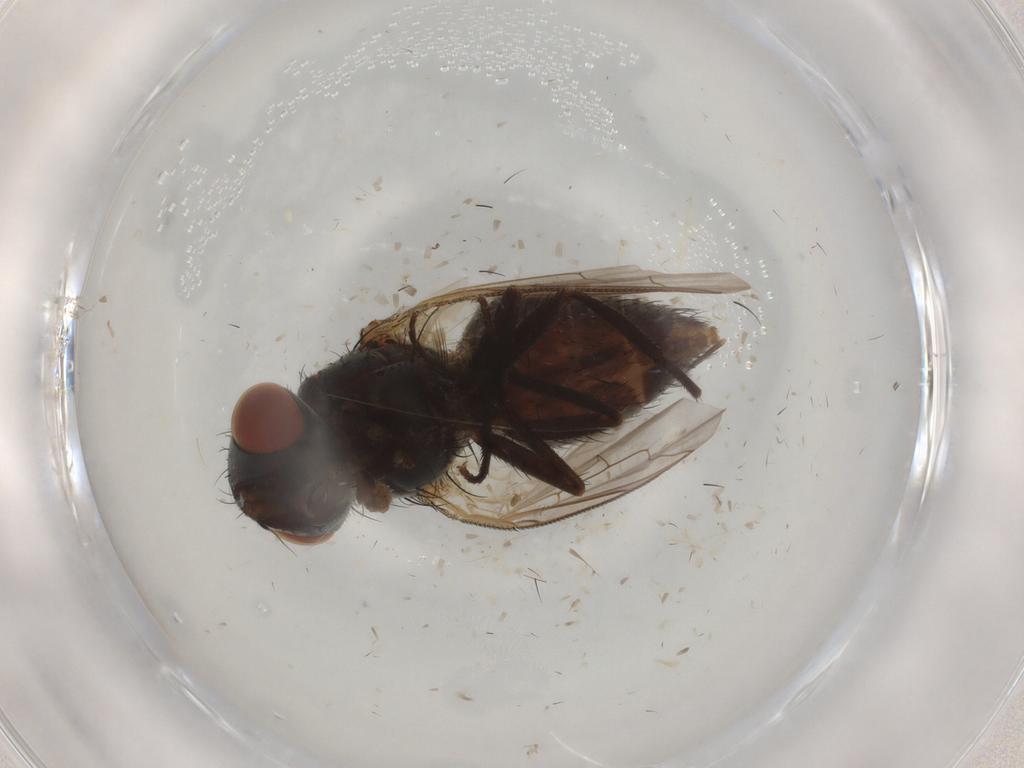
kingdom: Animalia
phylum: Arthropoda
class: Insecta
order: Diptera
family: Sarcophagidae
